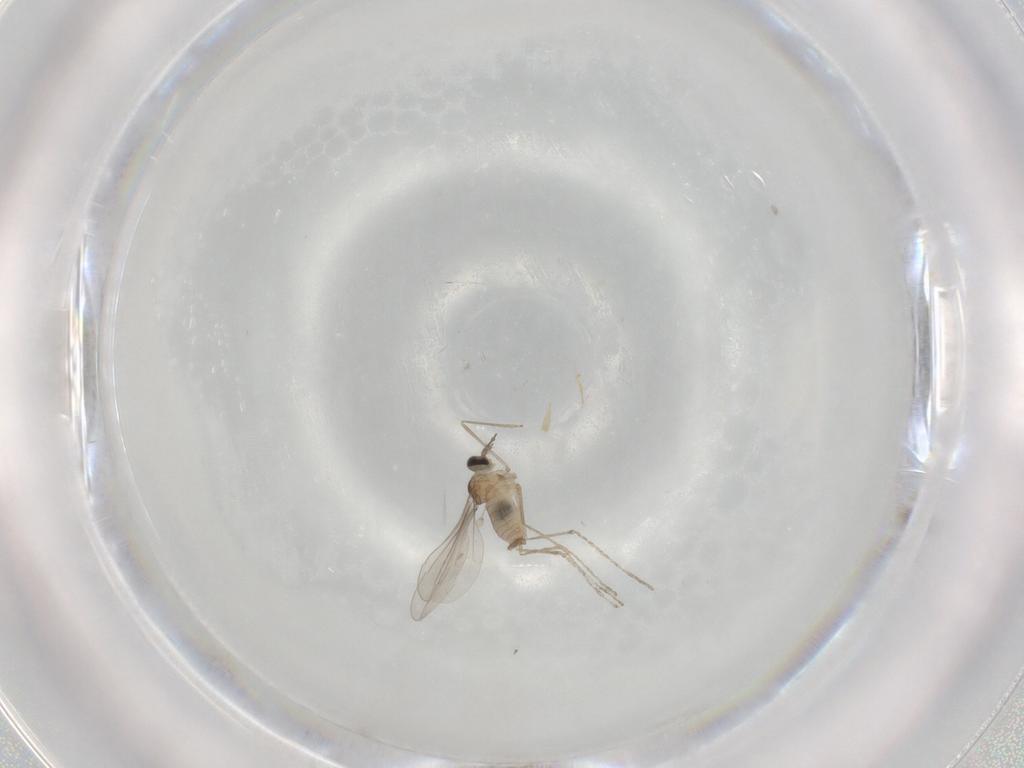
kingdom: Animalia
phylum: Arthropoda
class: Insecta
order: Diptera
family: Cecidomyiidae
